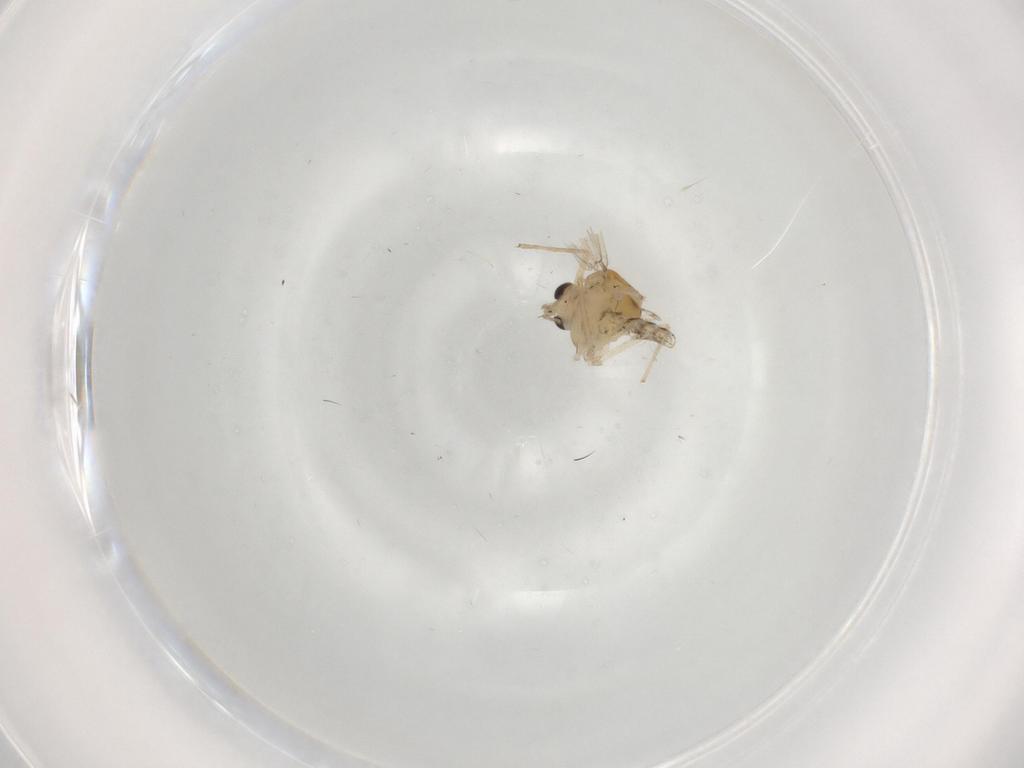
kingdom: Animalia
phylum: Arthropoda
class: Insecta
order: Diptera
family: Chironomidae
